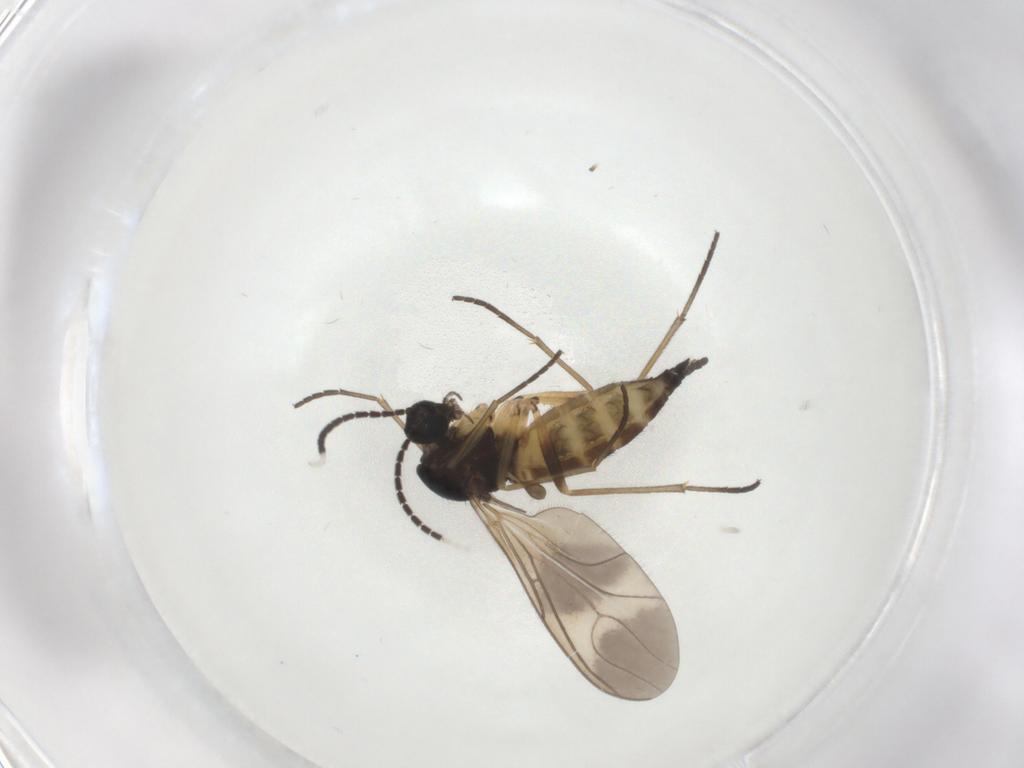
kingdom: Animalia
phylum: Arthropoda
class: Insecta
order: Diptera
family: Sciaridae
